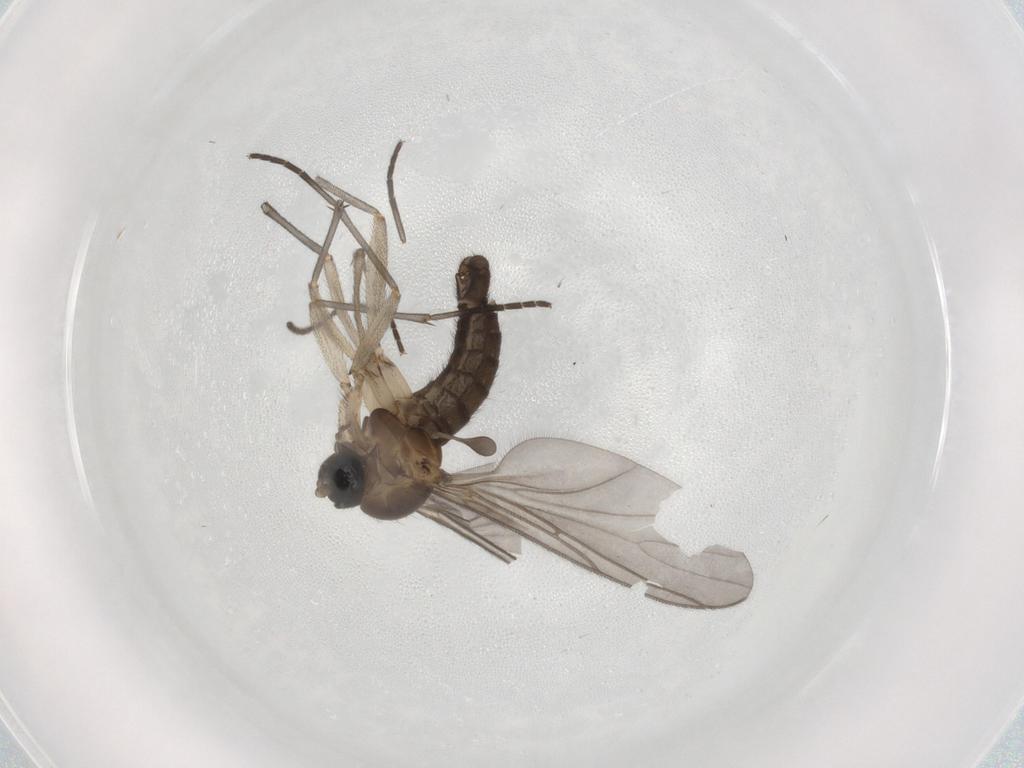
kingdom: Animalia
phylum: Arthropoda
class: Insecta
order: Diptera
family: Sciaridae
